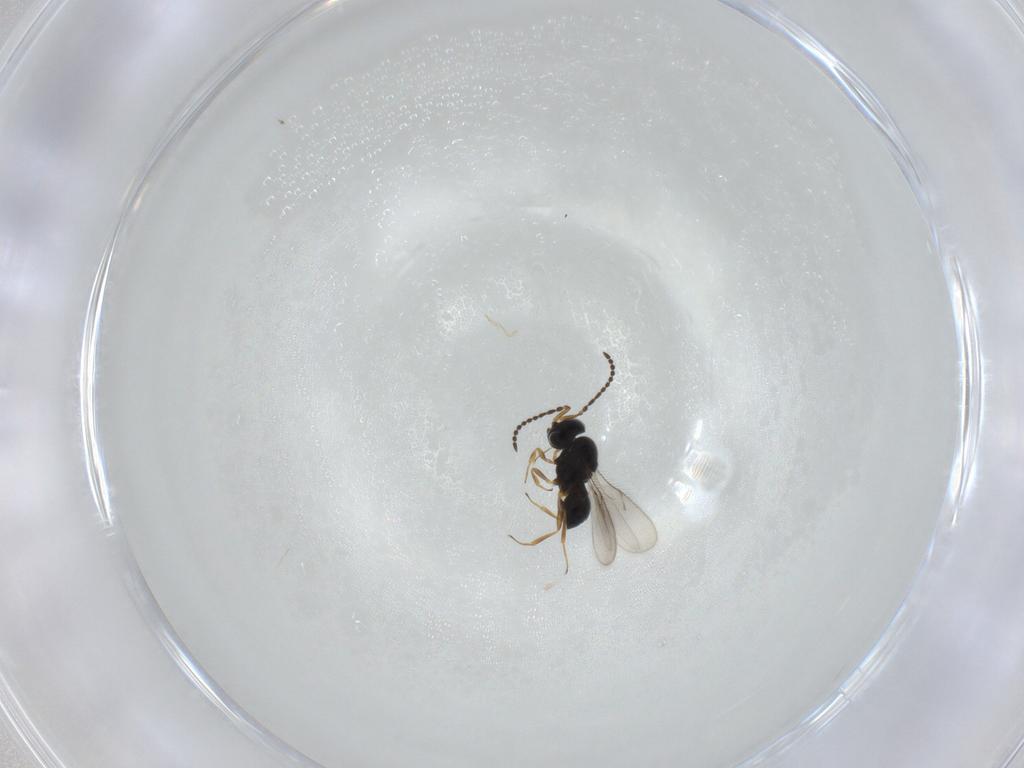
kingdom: Animalia
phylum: Arthropoda
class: Insecta
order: Hymenoptera
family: Scelionidae
